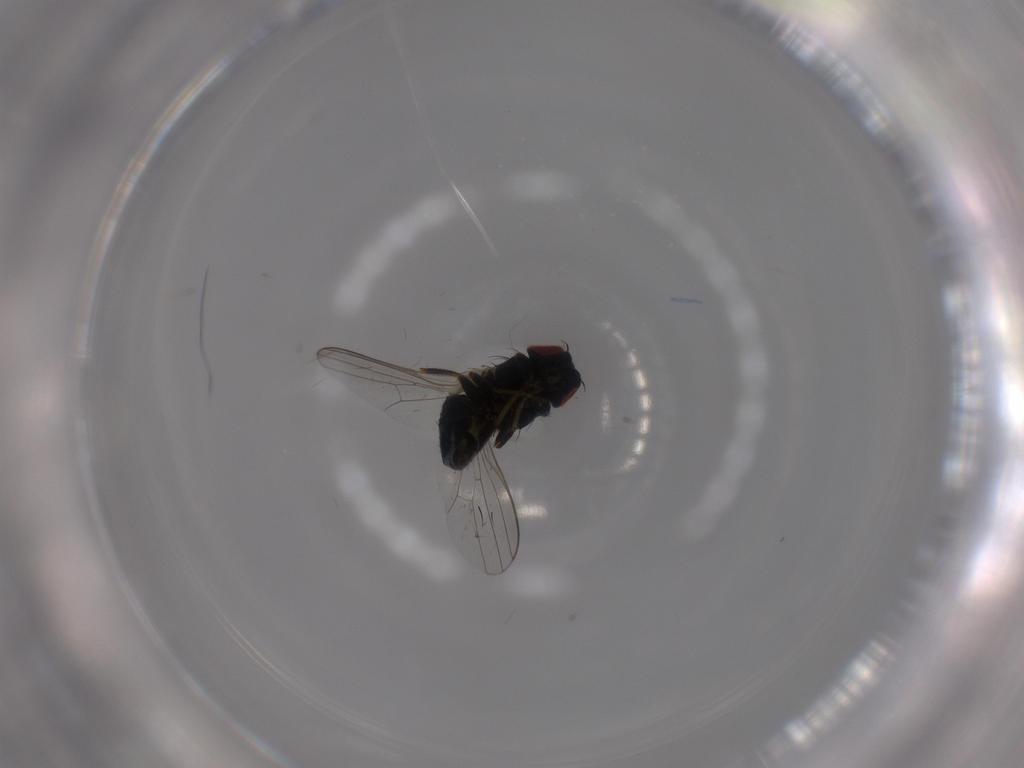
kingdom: Animalia
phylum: Arthropoda
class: Insecta
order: Diptera
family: Chamaemyiidae
